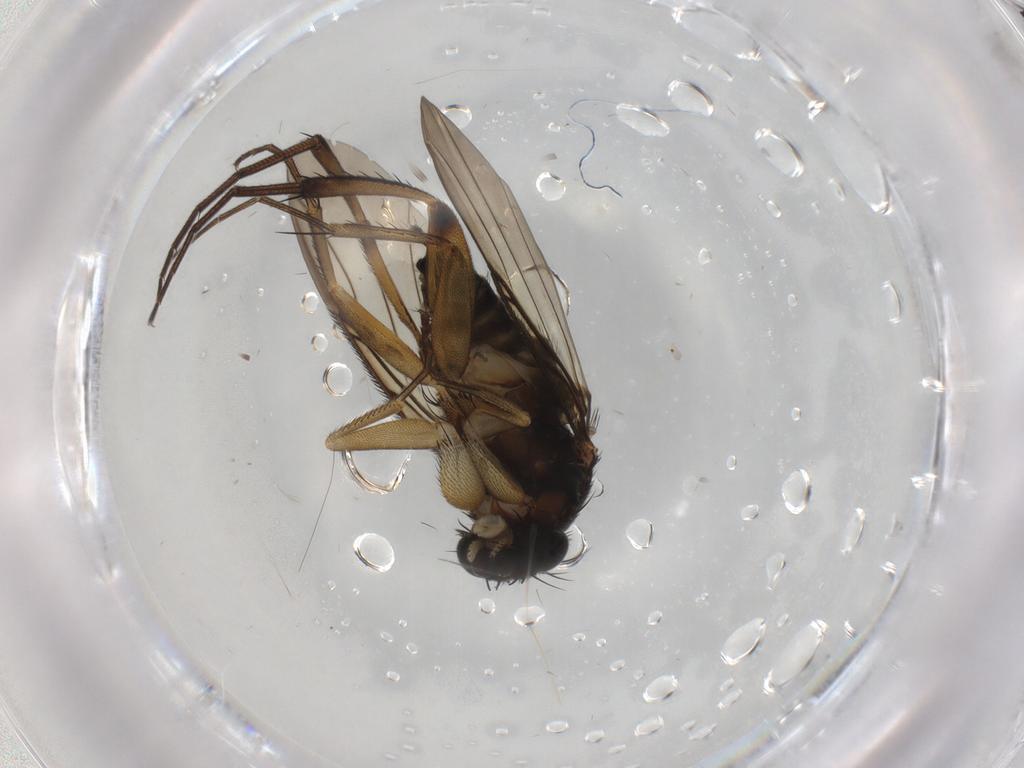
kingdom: Animalia
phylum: Arthropoda
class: Insecta
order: Diptera
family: Phoridae
